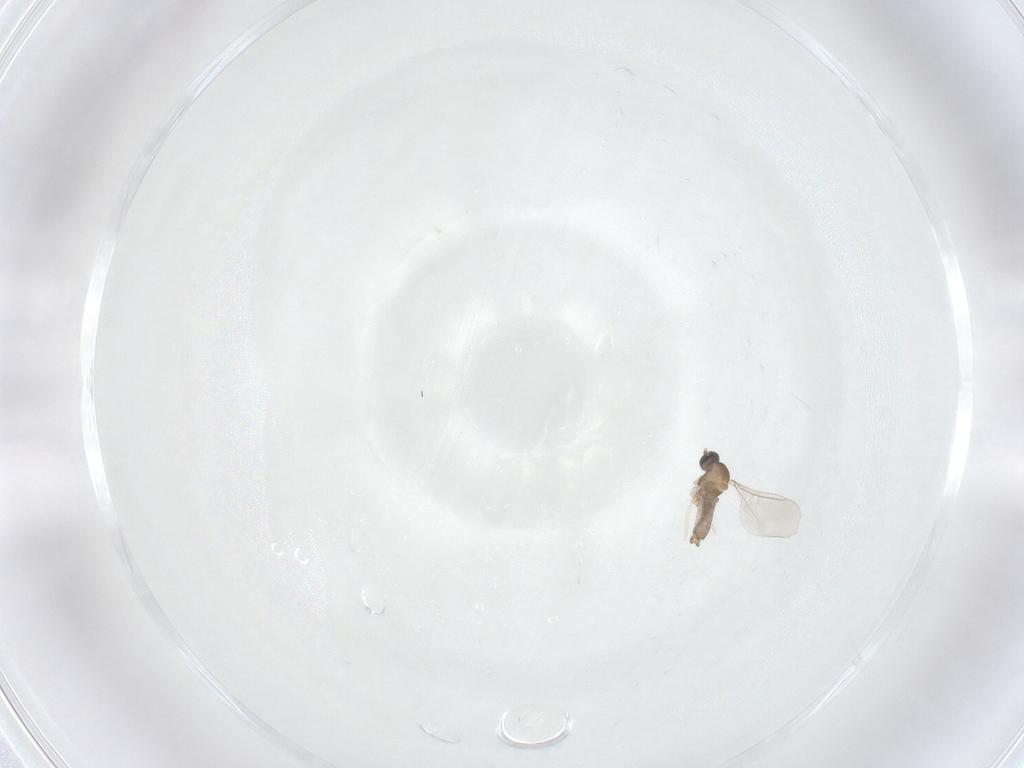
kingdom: Animalia
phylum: Arthropoda
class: Insecta
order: Diptera
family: Cecidomyiidae
